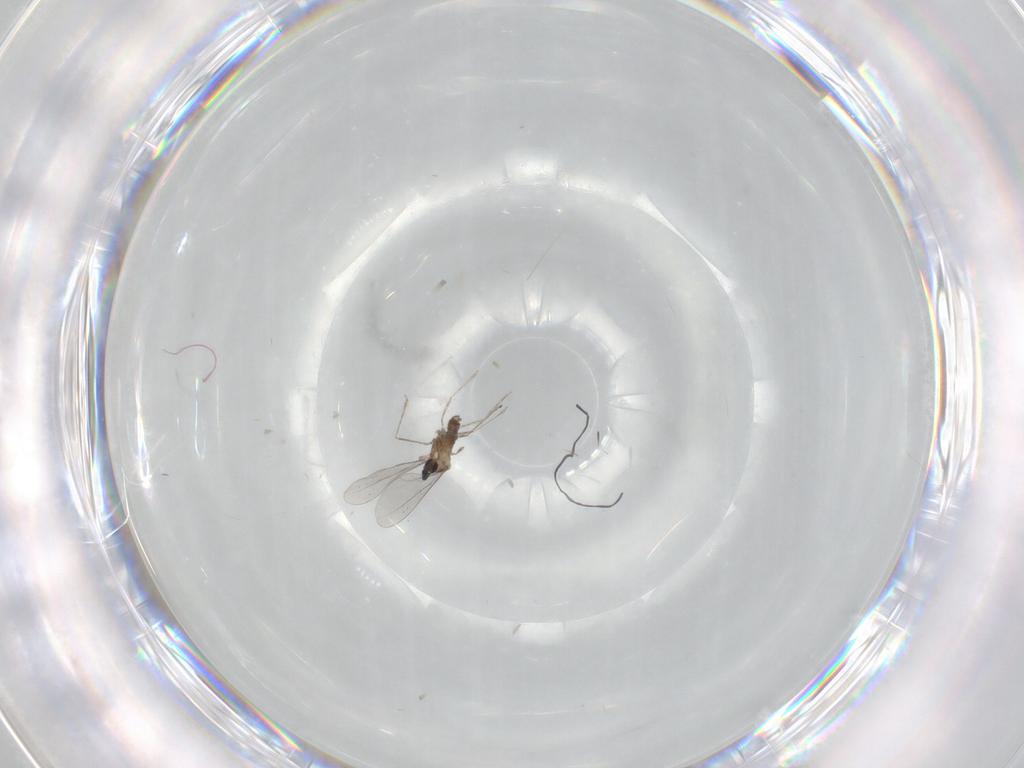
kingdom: Animalia
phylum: Arthropoda
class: Insecta
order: Diptera
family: Cecidomyiidae
